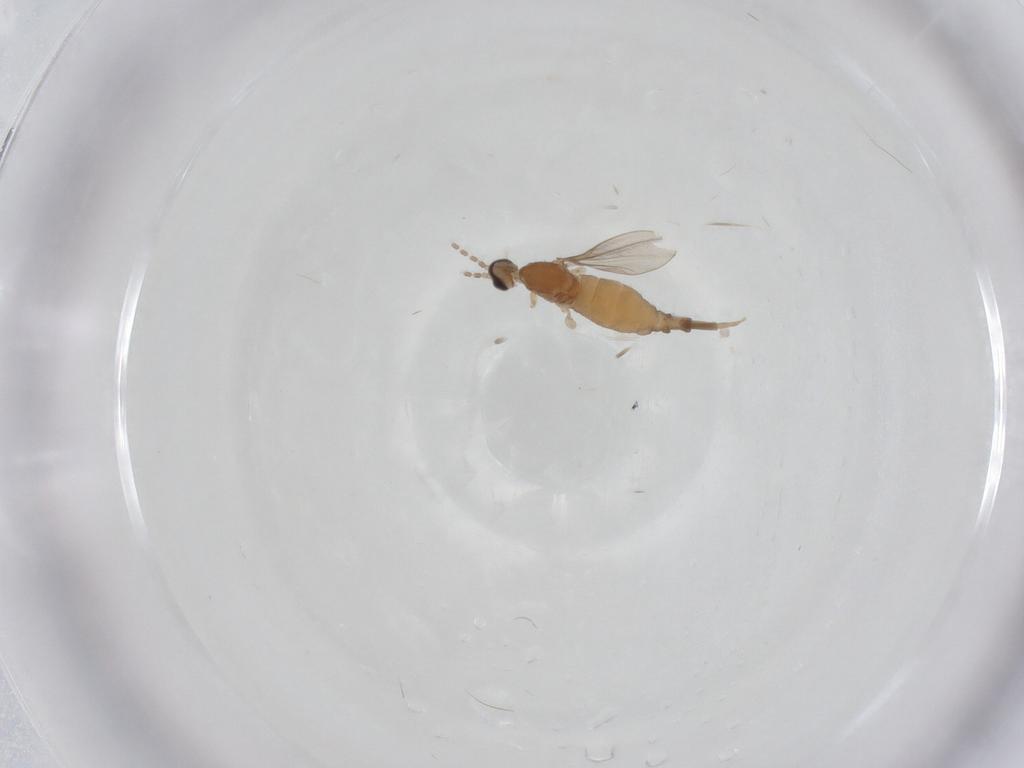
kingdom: Animalia
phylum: Arthropoda
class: Insecta
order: Diptera
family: Cecidomyiidae
